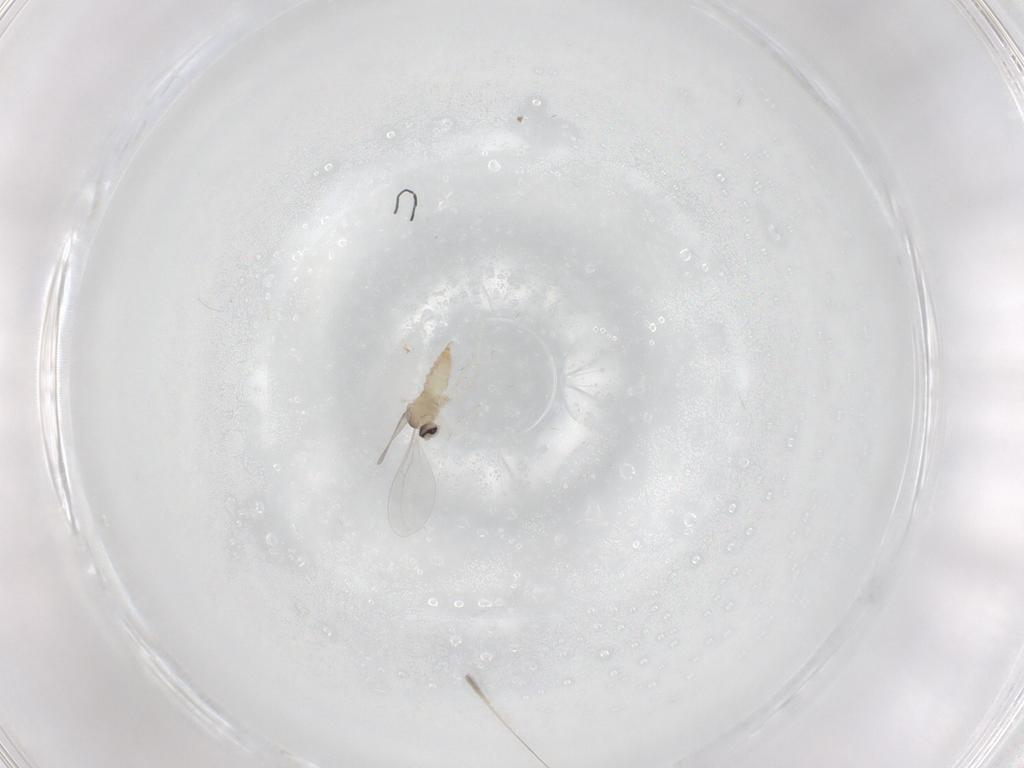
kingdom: Animalia
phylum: Arthropoda
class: Insecta
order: Diptera
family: Cecidomyiidae
